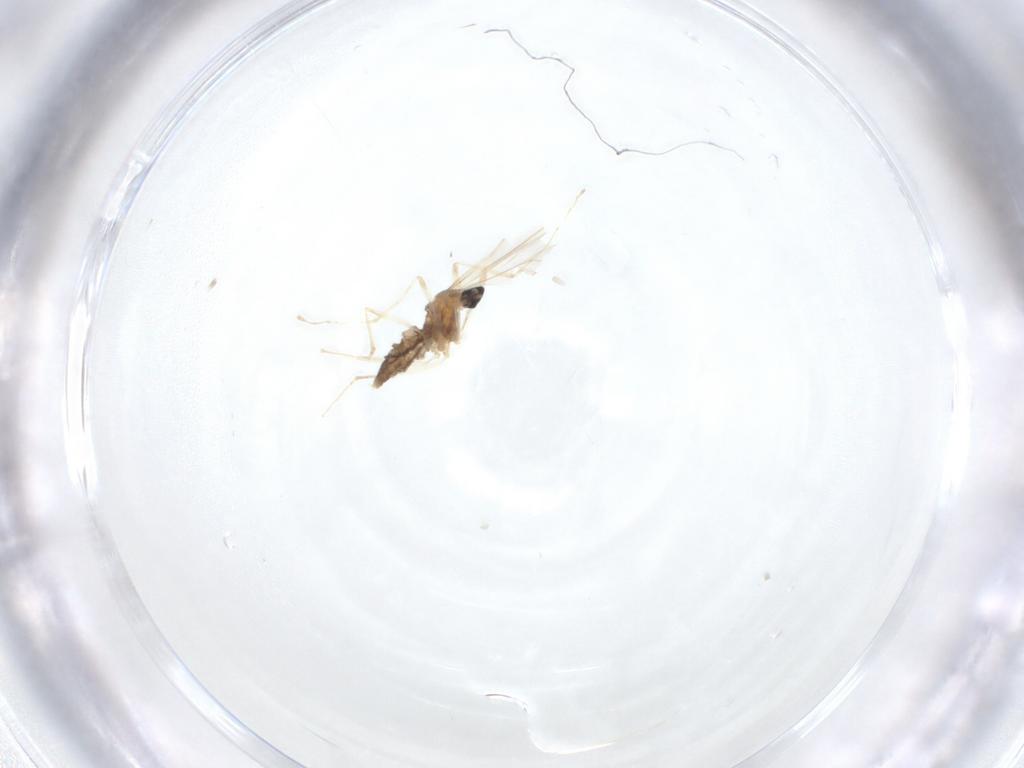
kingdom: Animalia
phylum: Arthropoda
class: Insecta
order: Diptera
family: Cecidomyiidae
